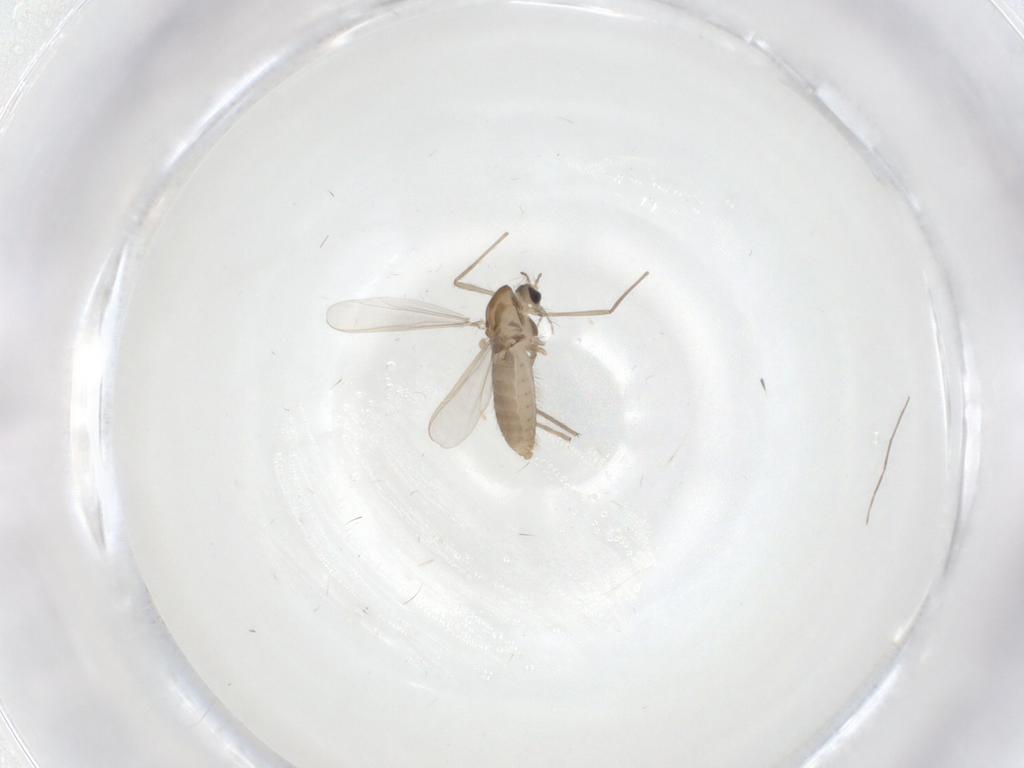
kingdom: Animalia
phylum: Arthropoda
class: Insecta
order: Diptera
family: Chironomidae
